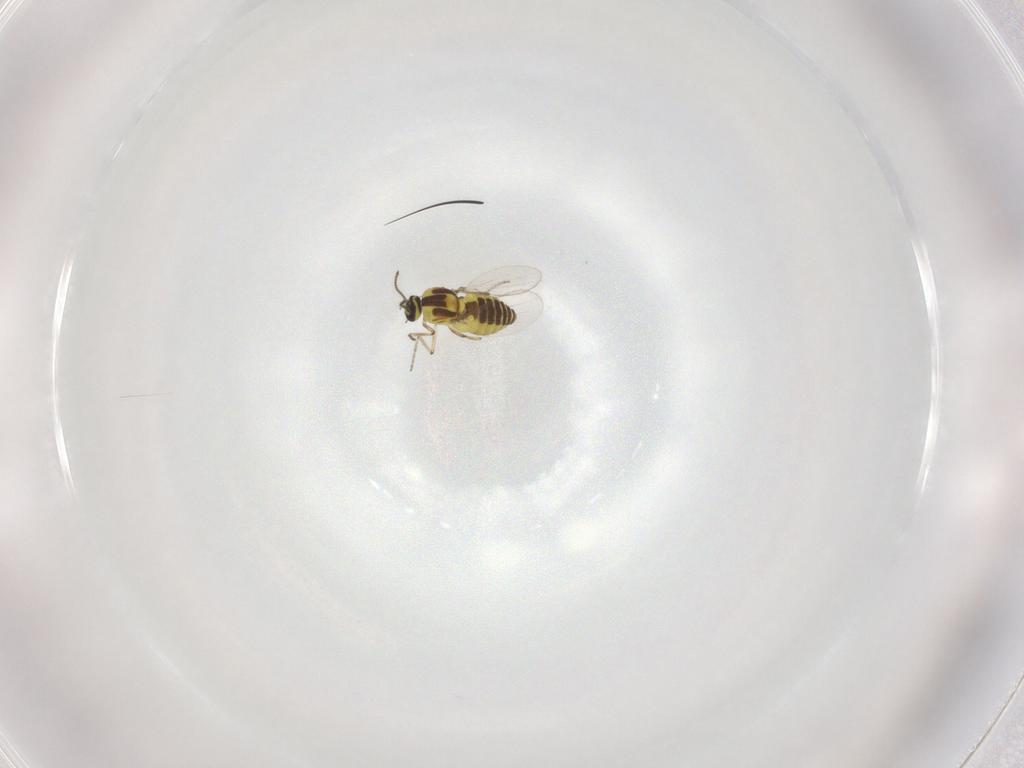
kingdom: Animalia
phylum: Arthropoda
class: Insecta
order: Diptera
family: Ceratopogonidae
